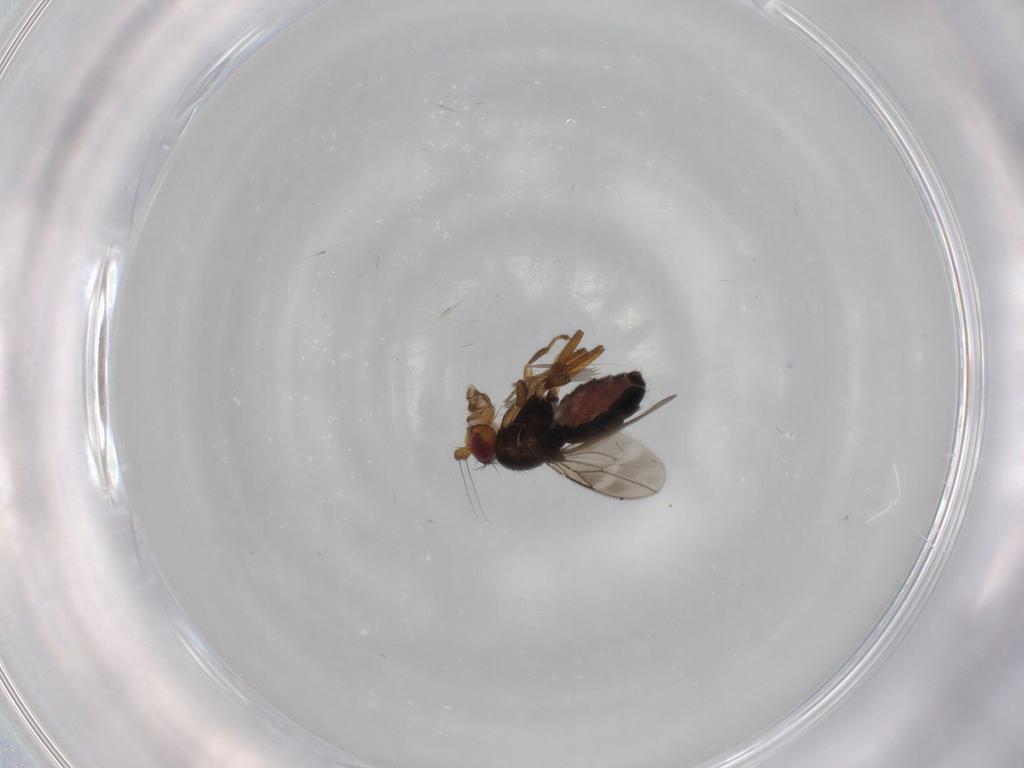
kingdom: Animalia
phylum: Arthropoda
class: Insecta
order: Diptera
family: Sphaeroceridae
